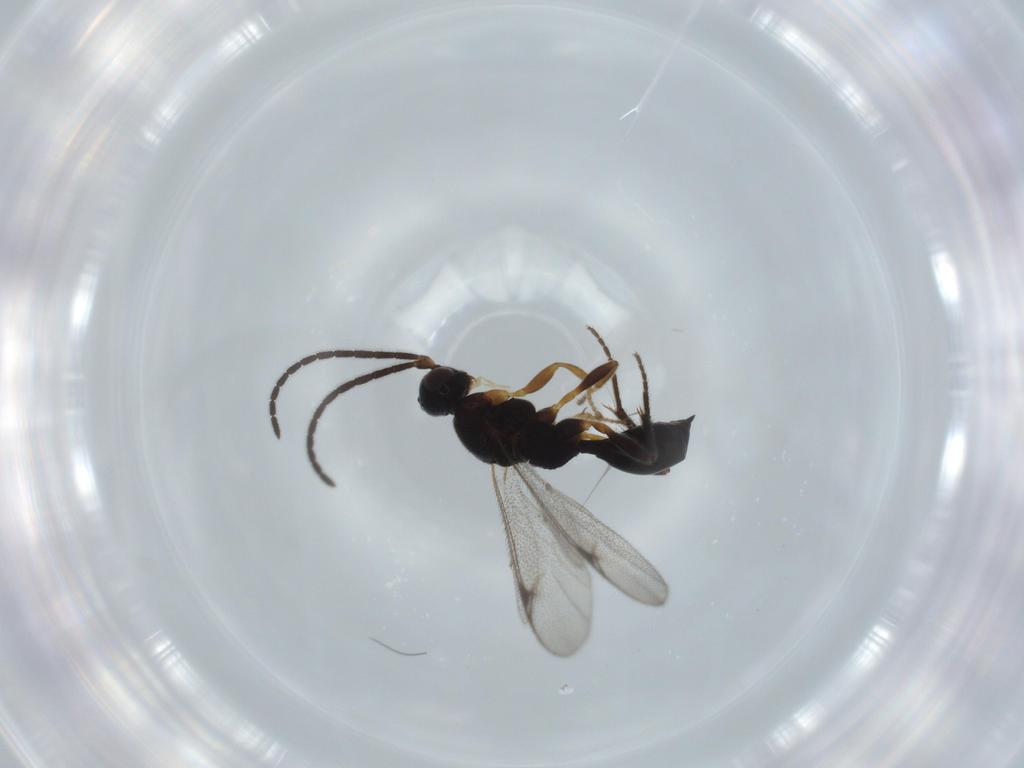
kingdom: Animalia
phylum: Arthropoda
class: Insecta
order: Hymenoptera
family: Proctotrupidae
